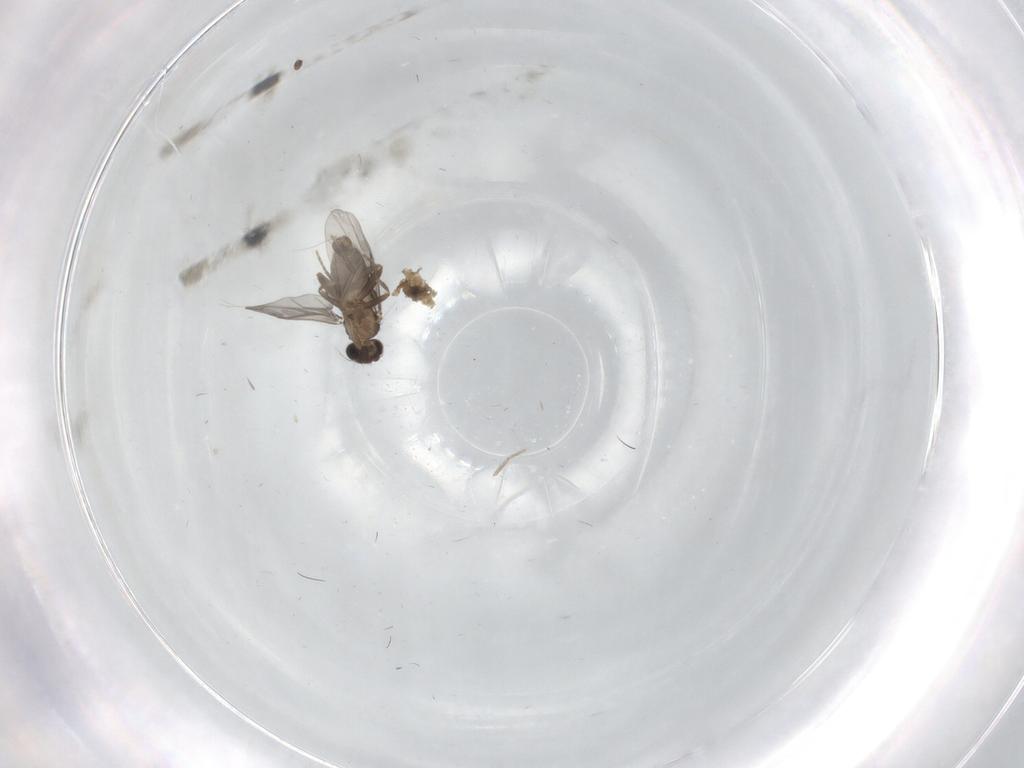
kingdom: Animalia
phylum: Arthropoda
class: Insecta
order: Diptera
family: Cecidomyiidae
